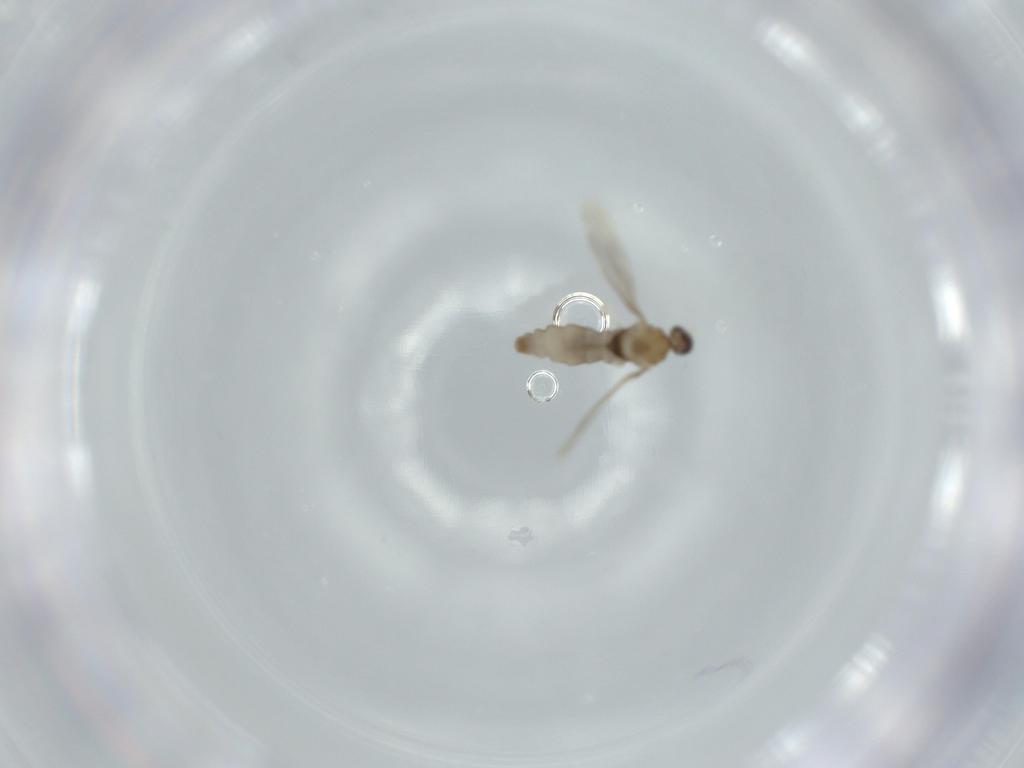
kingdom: Animalia
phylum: Arthropoda
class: Insecta
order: Diptera
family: Cecidomyiidae
